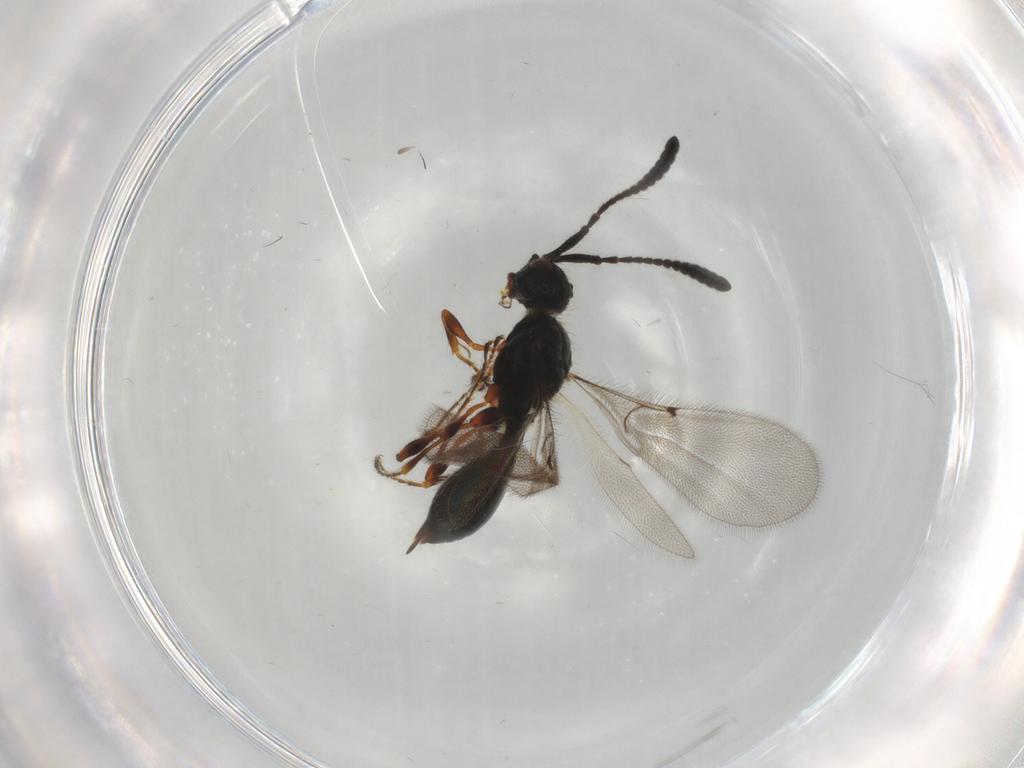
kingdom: Animalia
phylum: Arthropoda
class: Insecta
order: Hymenoptera
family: Diapriidae
